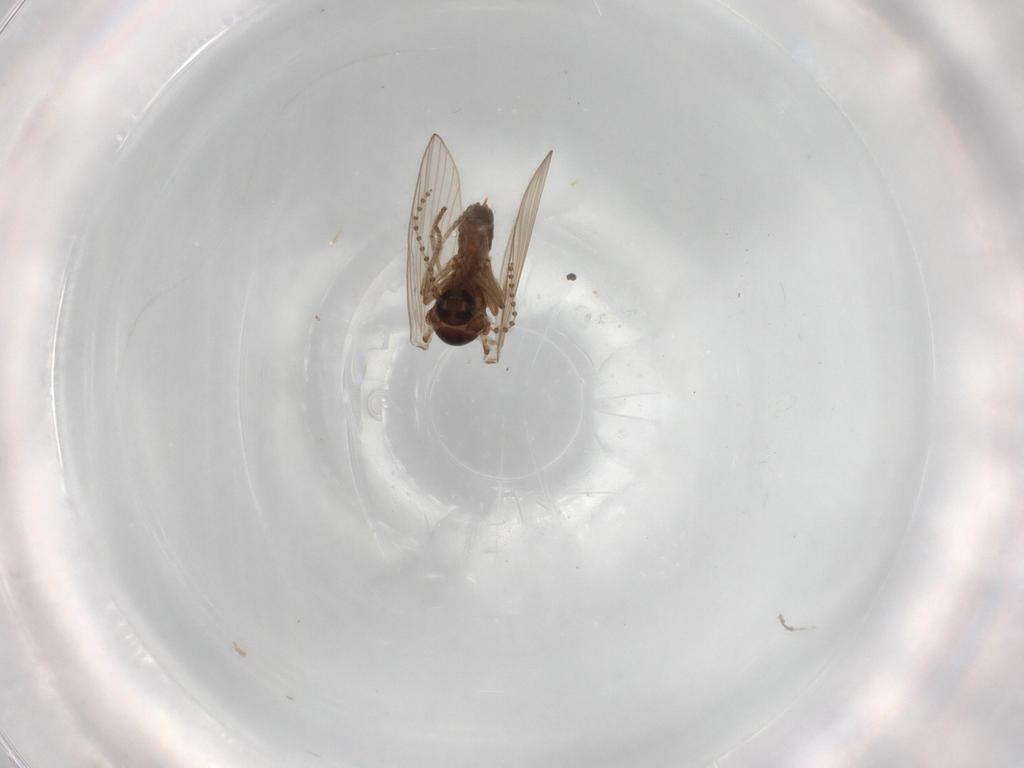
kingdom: Animalia
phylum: Arthropoda
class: Insecta
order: Diptera
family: Psychodidae
